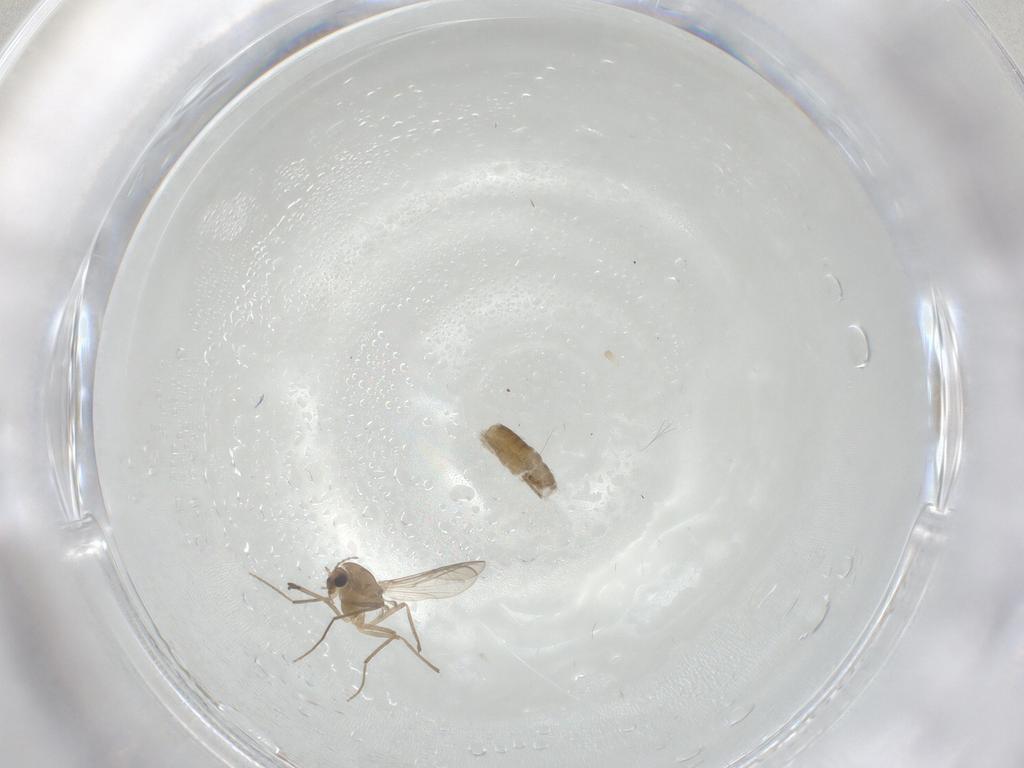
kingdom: Animalia
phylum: Arthropoda
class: Insecta
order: Diptera
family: Chironomidae
